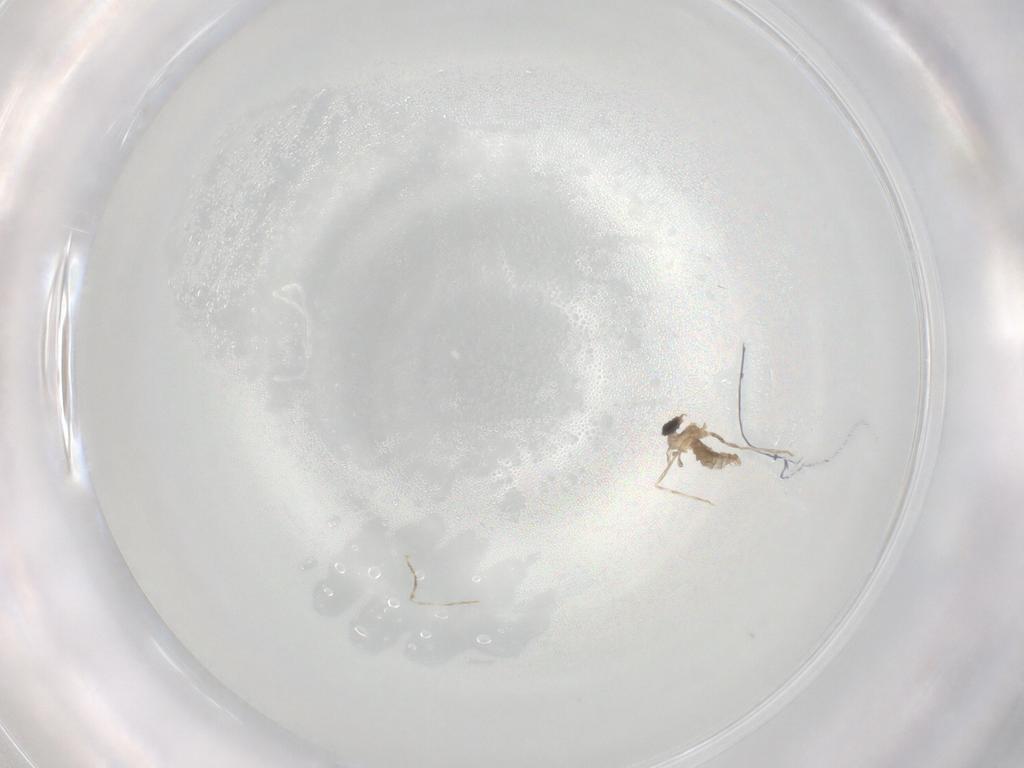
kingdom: Animalia
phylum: Arthropoda
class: Insecta
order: Diptera
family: Cecidomyiidae
